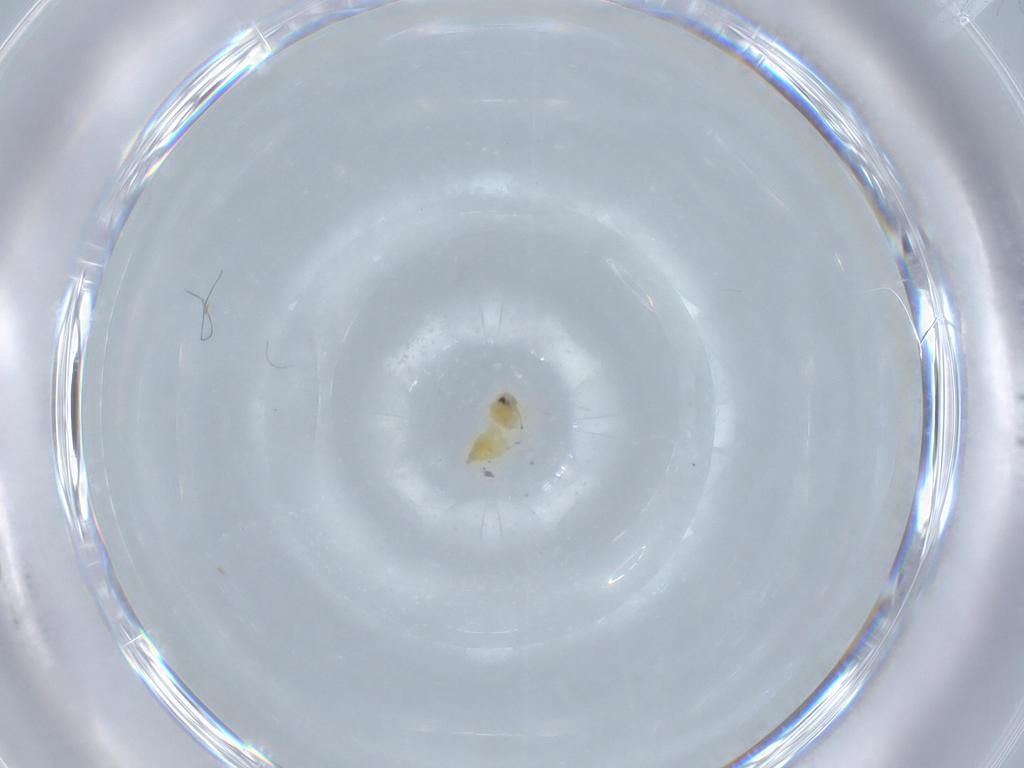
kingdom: Animalia
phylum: Arthropoda
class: Insecta
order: Hemiptera
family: Aleyrodidae
